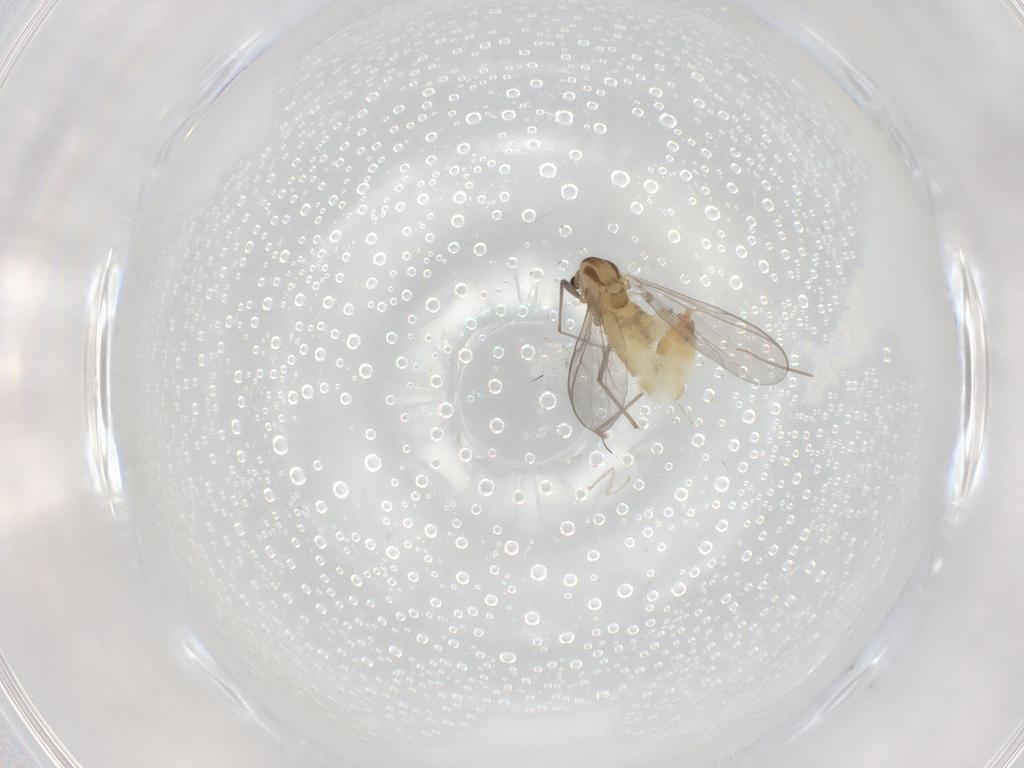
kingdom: Animalia
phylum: Arthropoda
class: Insecta
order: Diptera
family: Chironomidae
